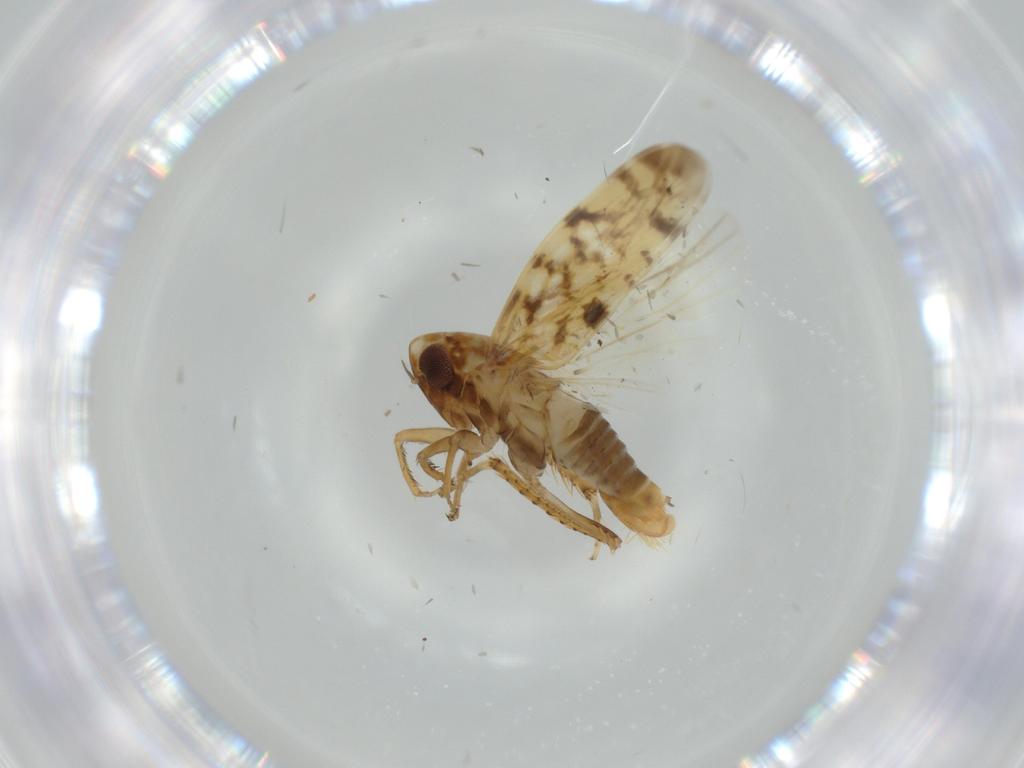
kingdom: Animalia
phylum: Arthropoda
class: Insecta
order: Hemiptera
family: Cicadellidae
